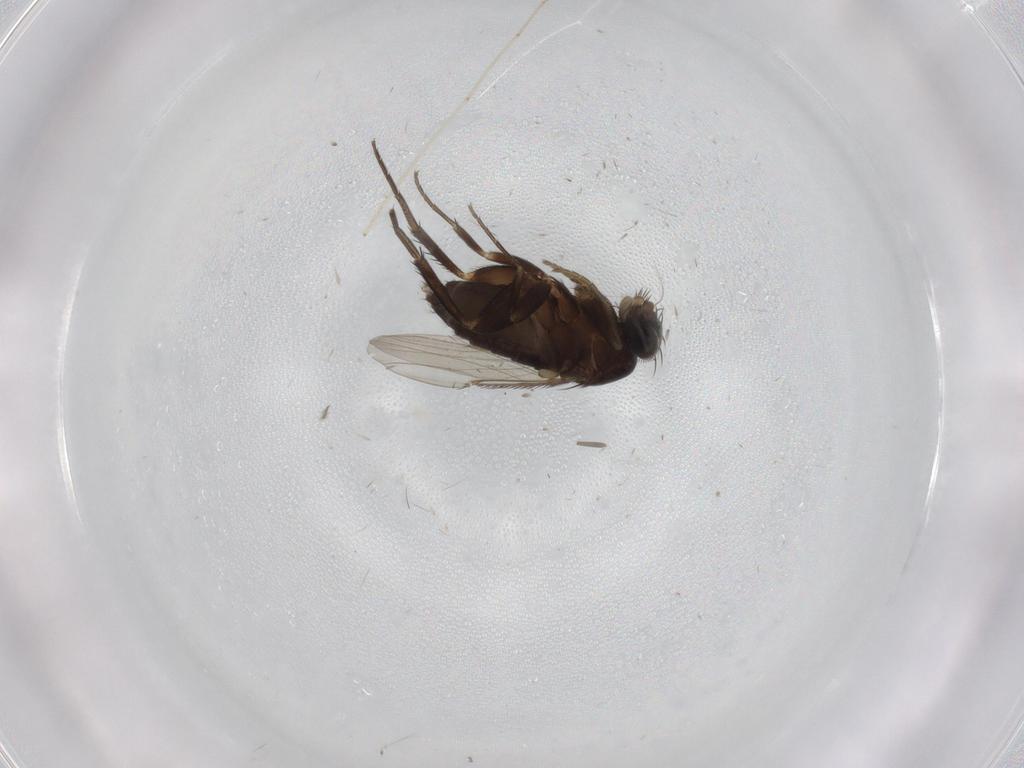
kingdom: Animalia
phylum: Arthropoda
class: Insecta
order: Diptera
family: Phoridae
